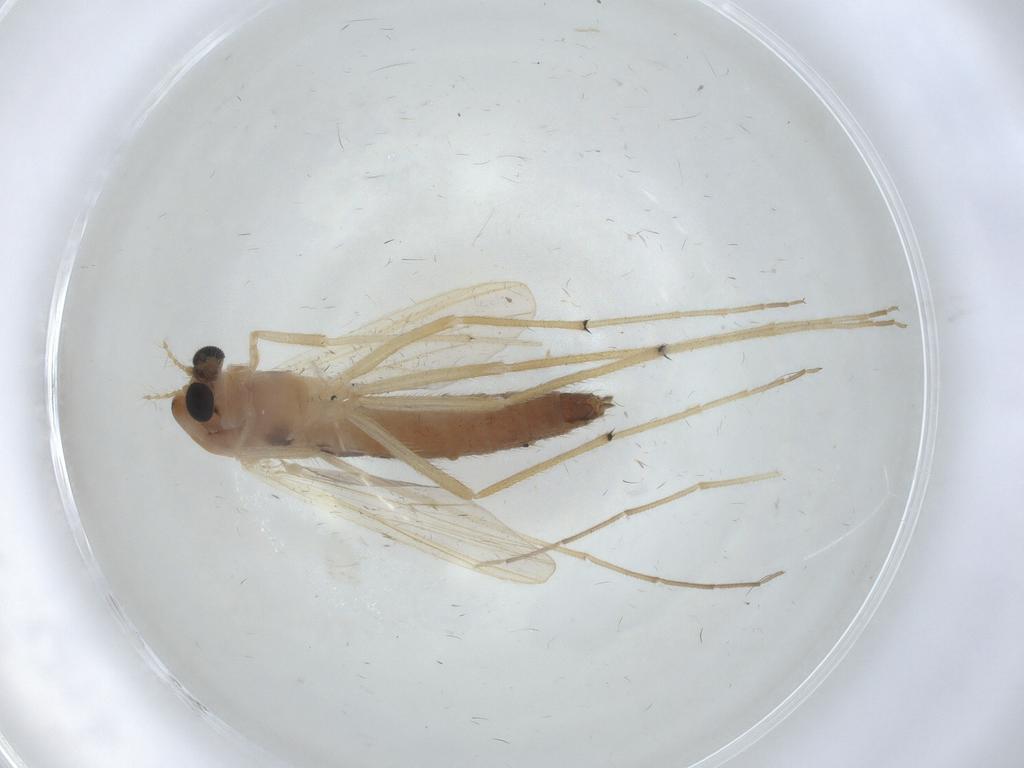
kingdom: Animalia
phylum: Arthropoda
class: Insecta
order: Diptera
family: Chironomidae
